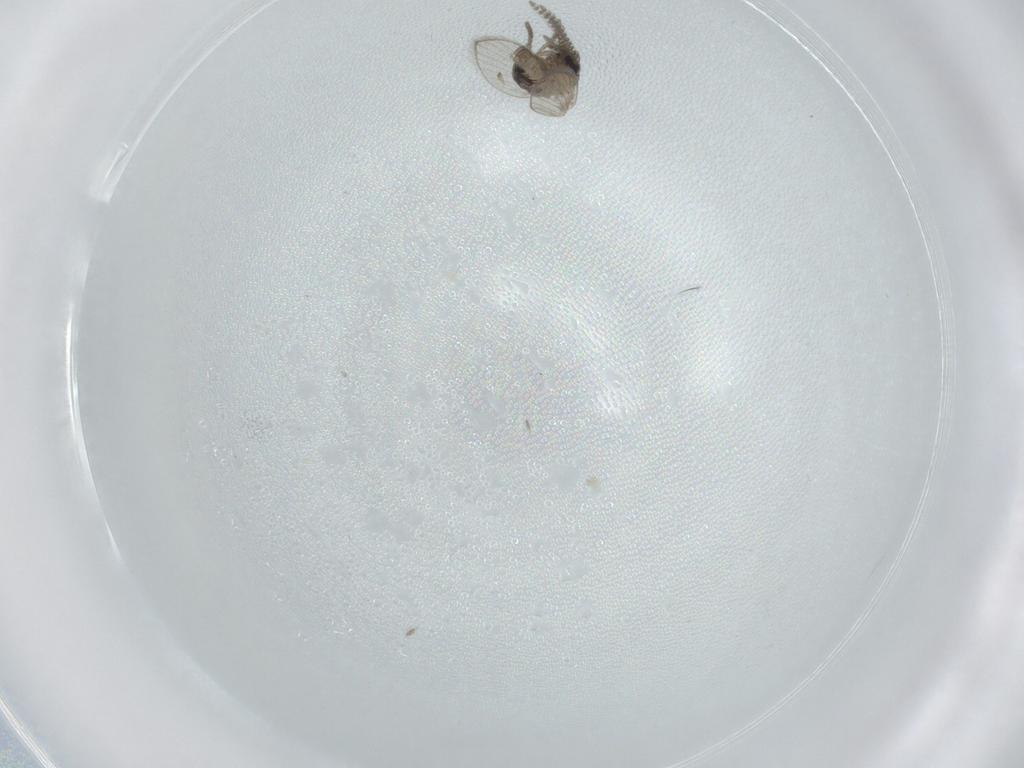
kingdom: Animalia
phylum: Arthropoda
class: Insecta
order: Diptera
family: Psychodidae
